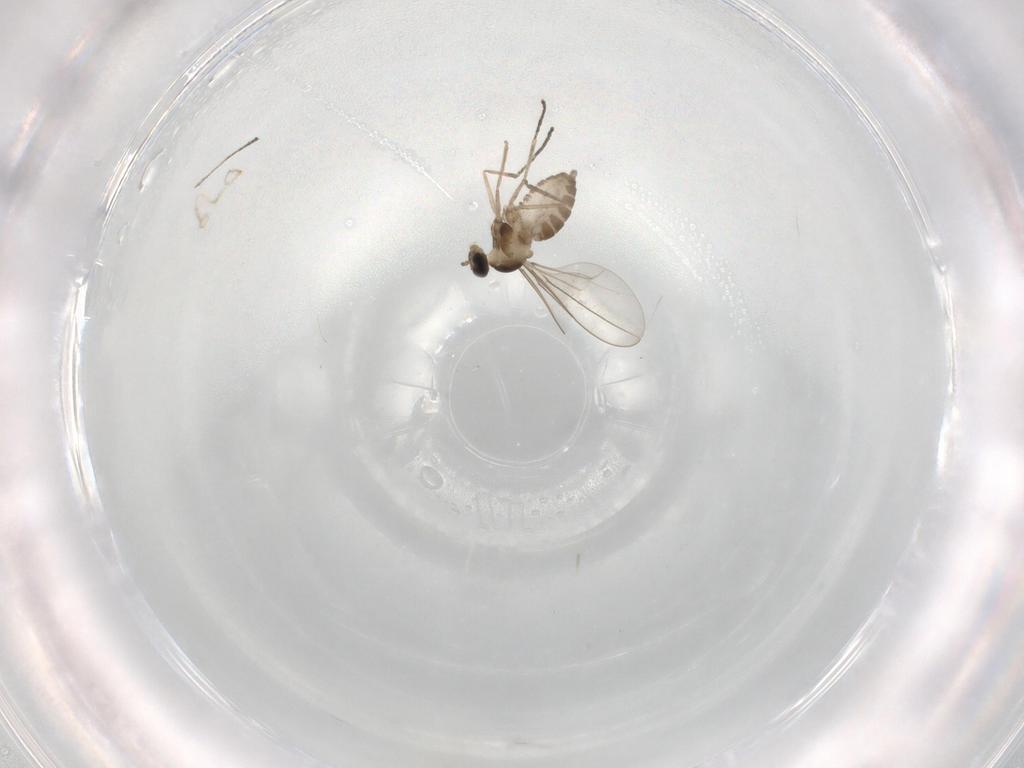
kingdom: Animalia
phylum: Arthropoda
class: Insecta
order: Diptera
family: Cecidomyiidae
